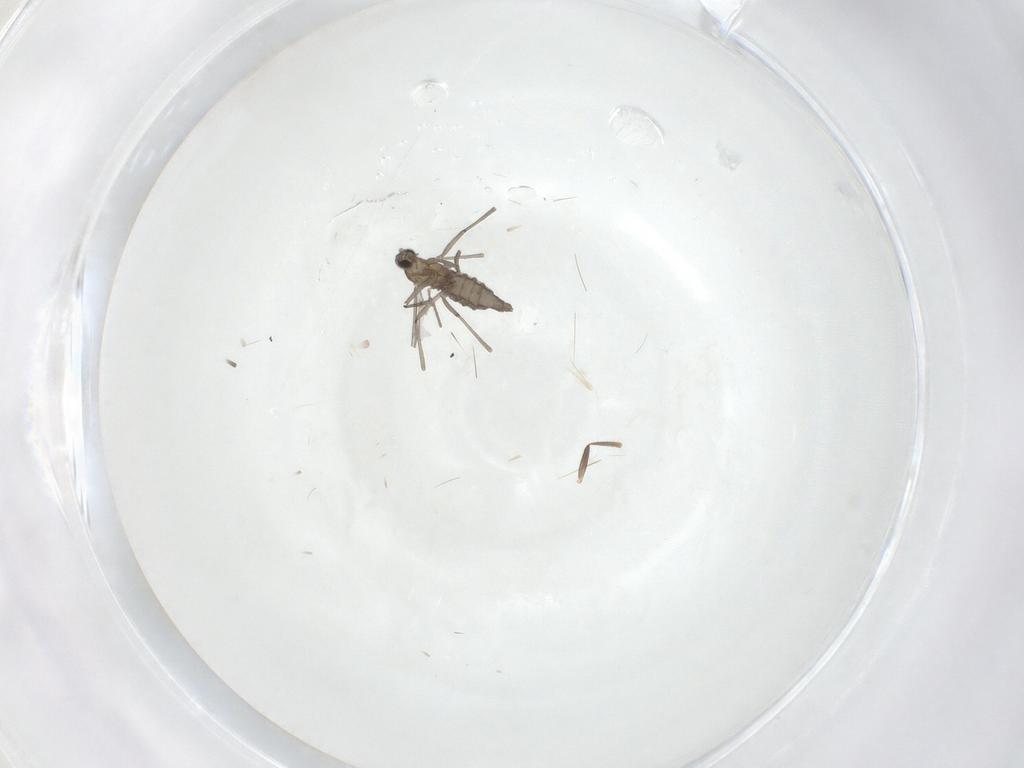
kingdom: Animalia
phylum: Arthropoda
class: Insecta
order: Diptera
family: Cecidomyiidae
